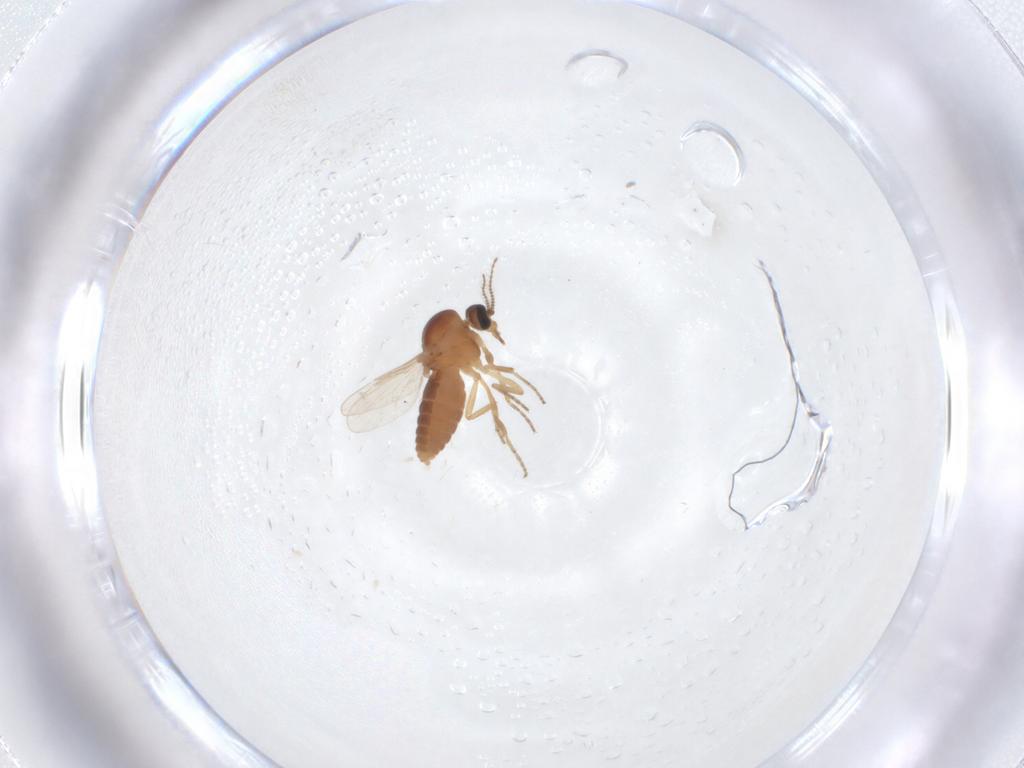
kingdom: Animalia
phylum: Arthropoda
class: Insecta
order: Diptera
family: Ceratopogonidae
